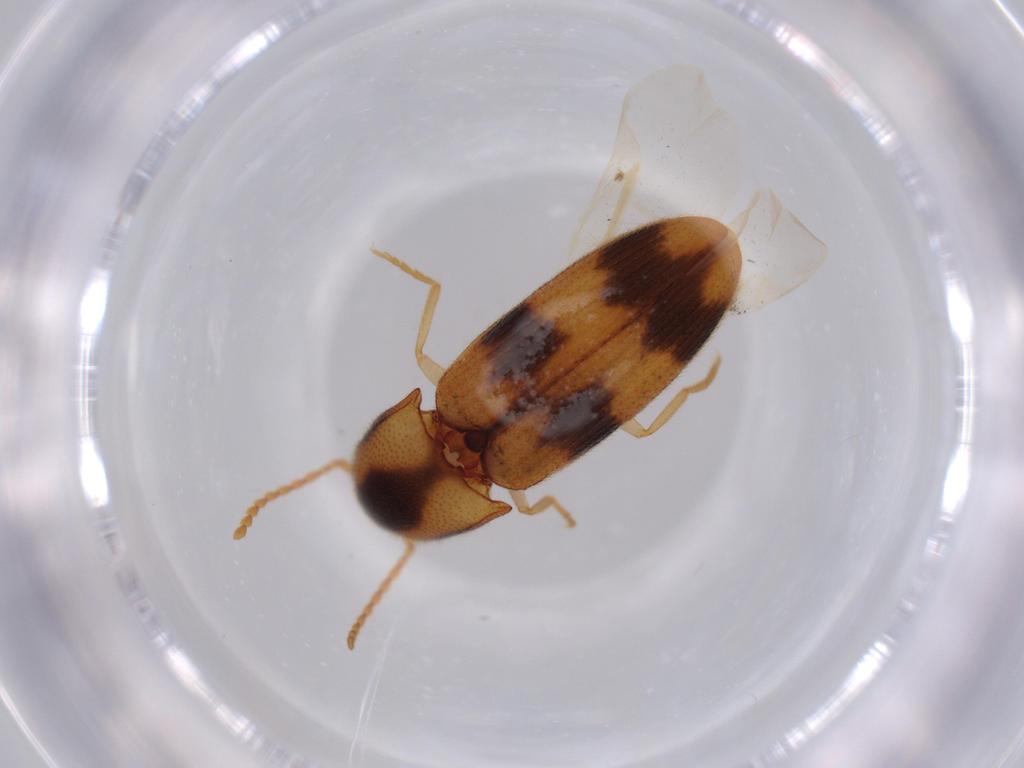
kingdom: Animalia
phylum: Arthropoda
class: Insecta
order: Coleoptera
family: Elateridae
